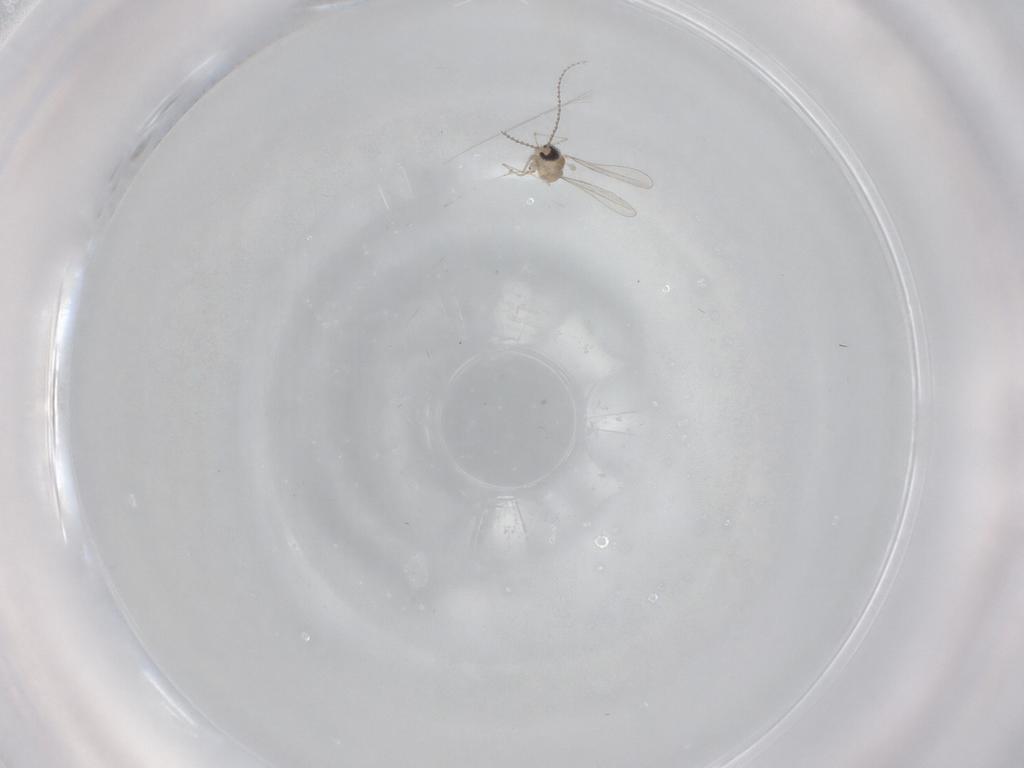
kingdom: Animalia
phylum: Arthropoda
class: Insecta
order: Diptera
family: Cecidomyiidae
